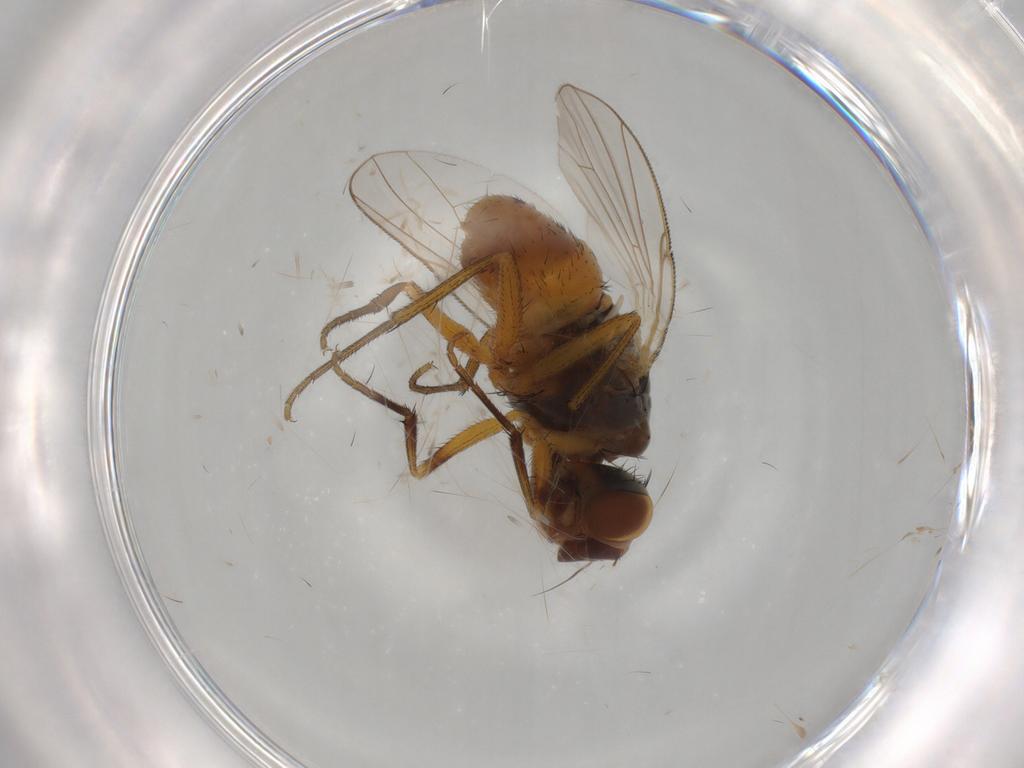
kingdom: Animalia
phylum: Arthropoda
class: Insecta
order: Diptera
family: Muscidae
